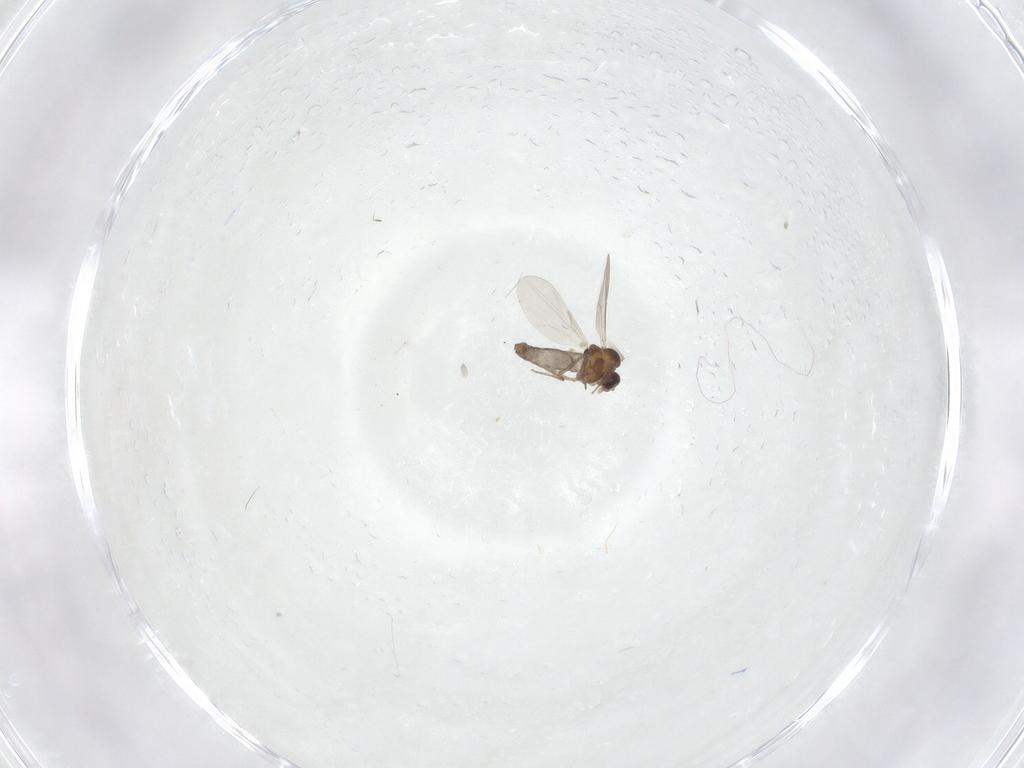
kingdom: Animalia
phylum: Arthropoda
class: Insecta
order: Diptera
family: Ceratopogonidae
